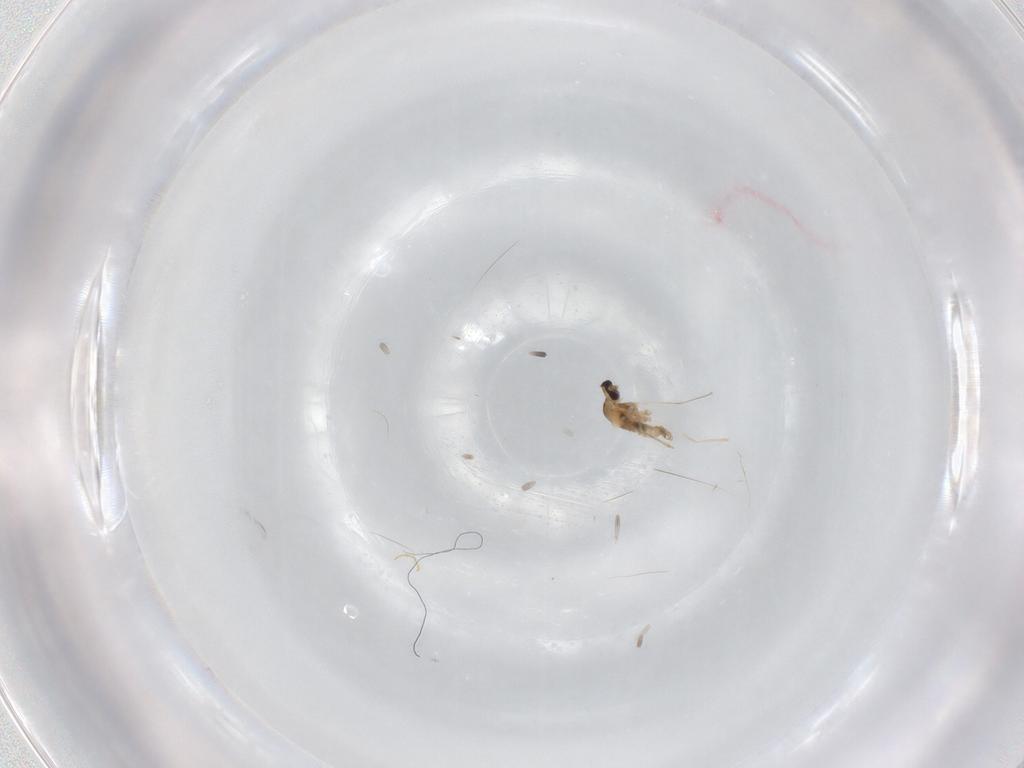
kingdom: Animalia
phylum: Arthropoda
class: Insecta
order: Diptera
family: Cecidomyiidae
